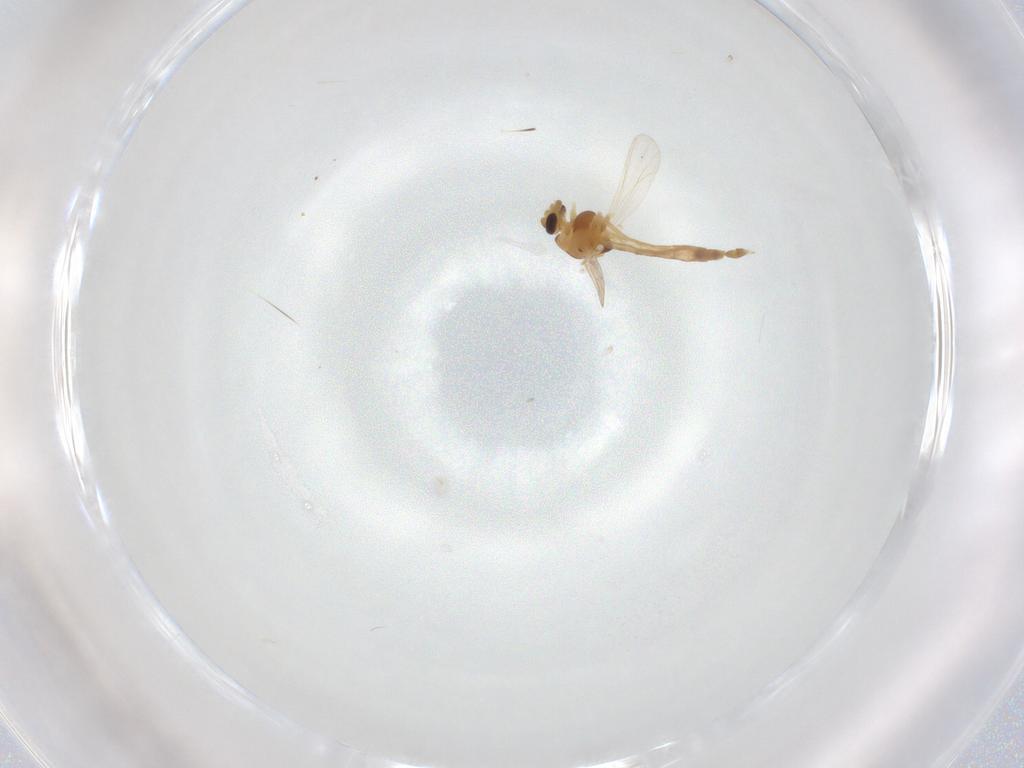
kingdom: Animalia
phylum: Arthropoda
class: Insecta
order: Diptera
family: Chironomidae
